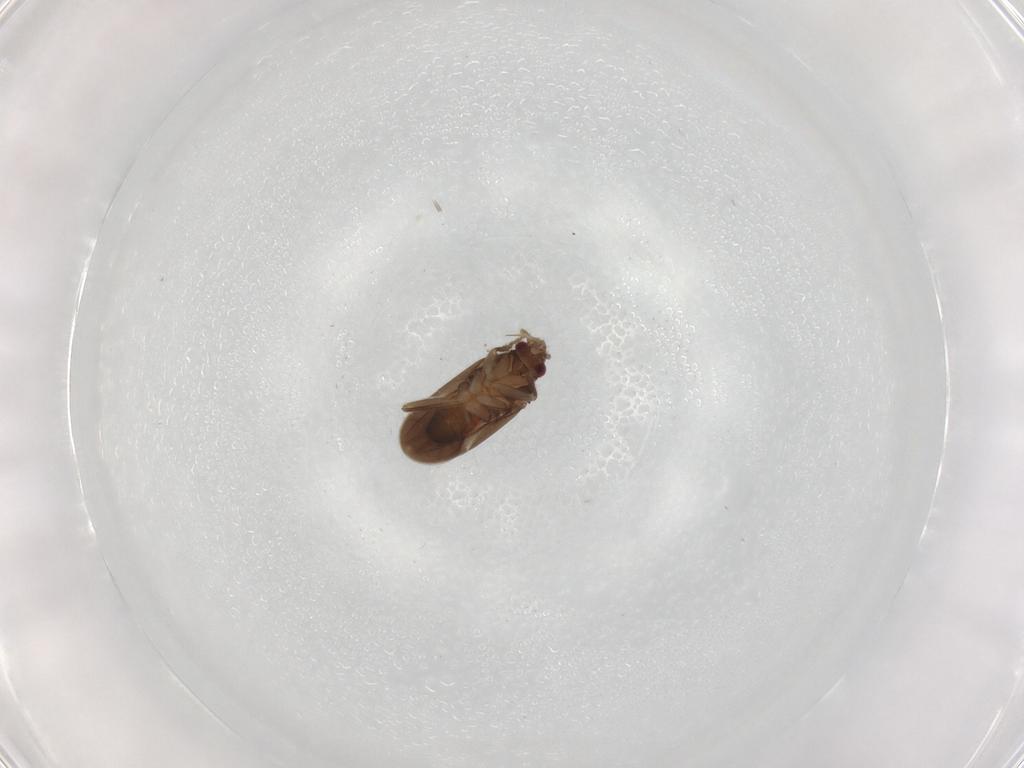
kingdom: Animalia
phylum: Arthropoda
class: Insecta
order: Hemiptera
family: Ceratocombidae
